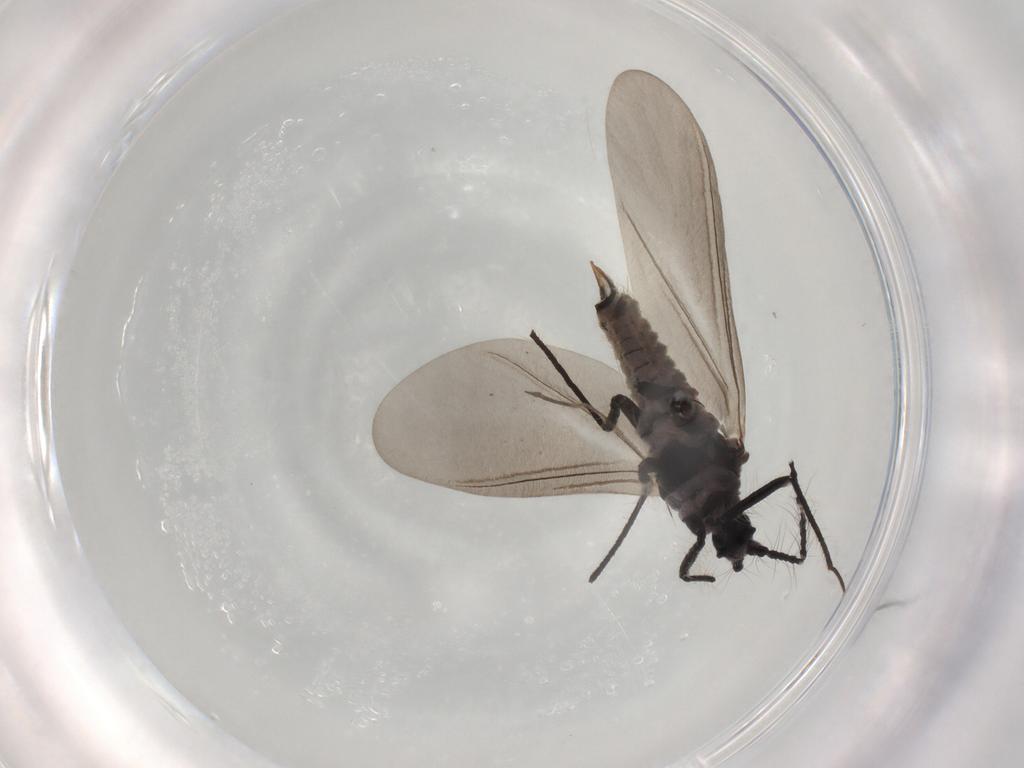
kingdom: Animalia
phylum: Arthropoda
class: Insecta
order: Hemiptera
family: Putoidae
